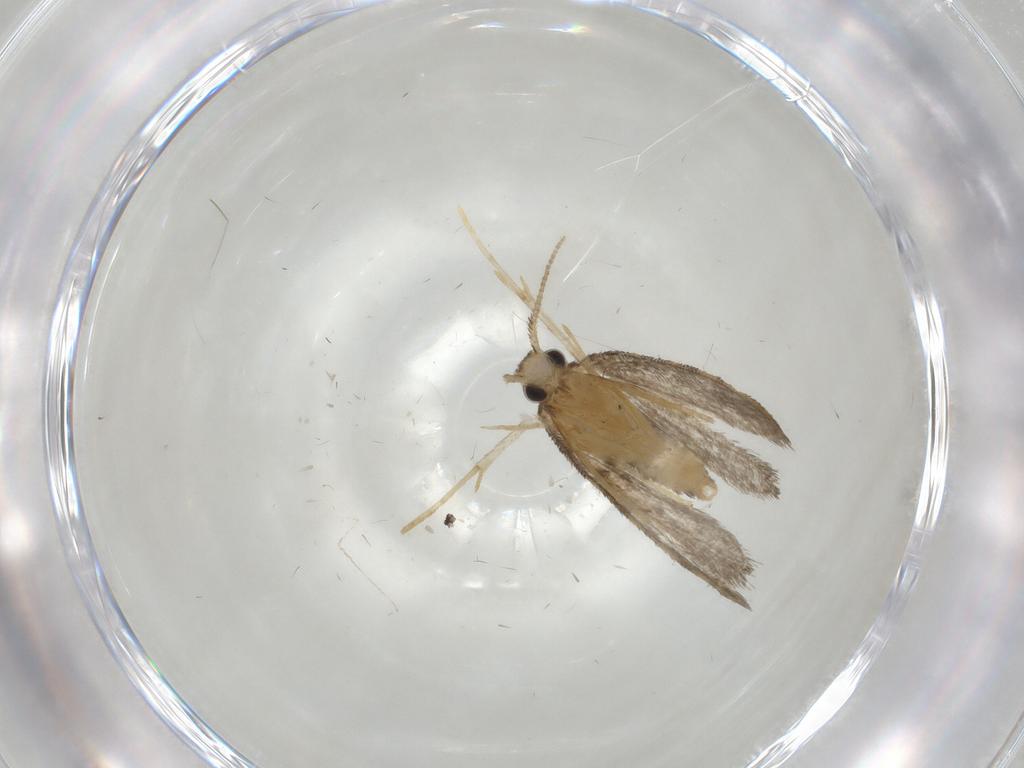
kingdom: Animalia
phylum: Arthropoda
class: Insecta
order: Lepidoptera
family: Psychidae
